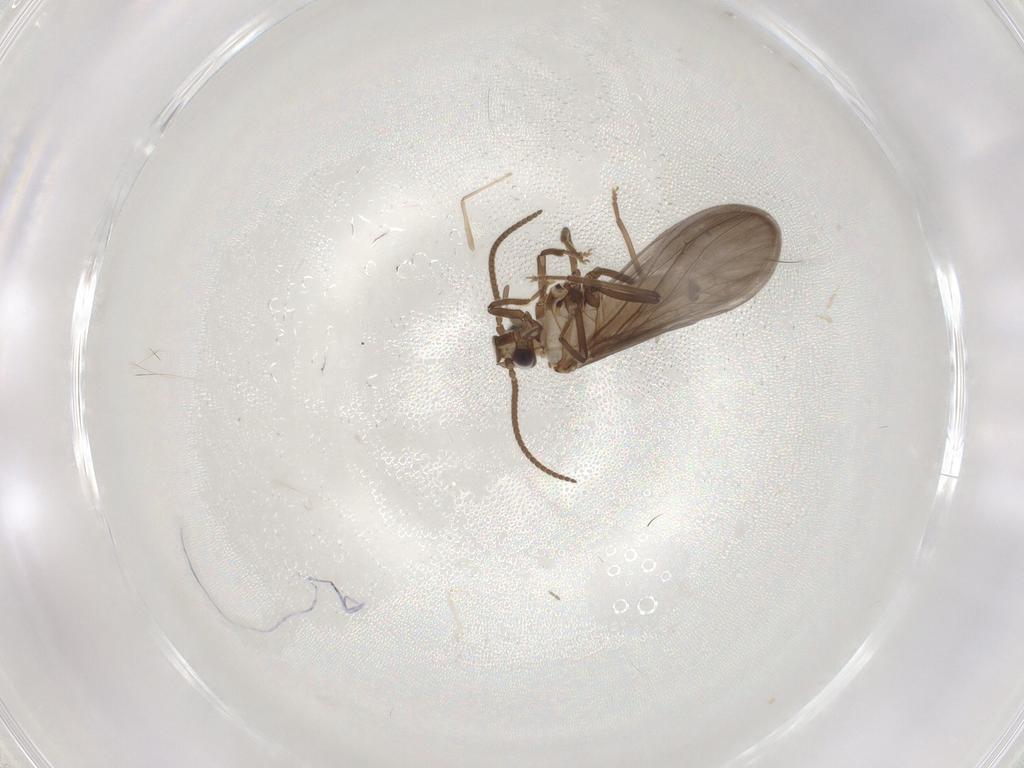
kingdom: Animalia
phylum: Arthropoda
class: Insecta
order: Neuroptera
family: Coniopterygidae
